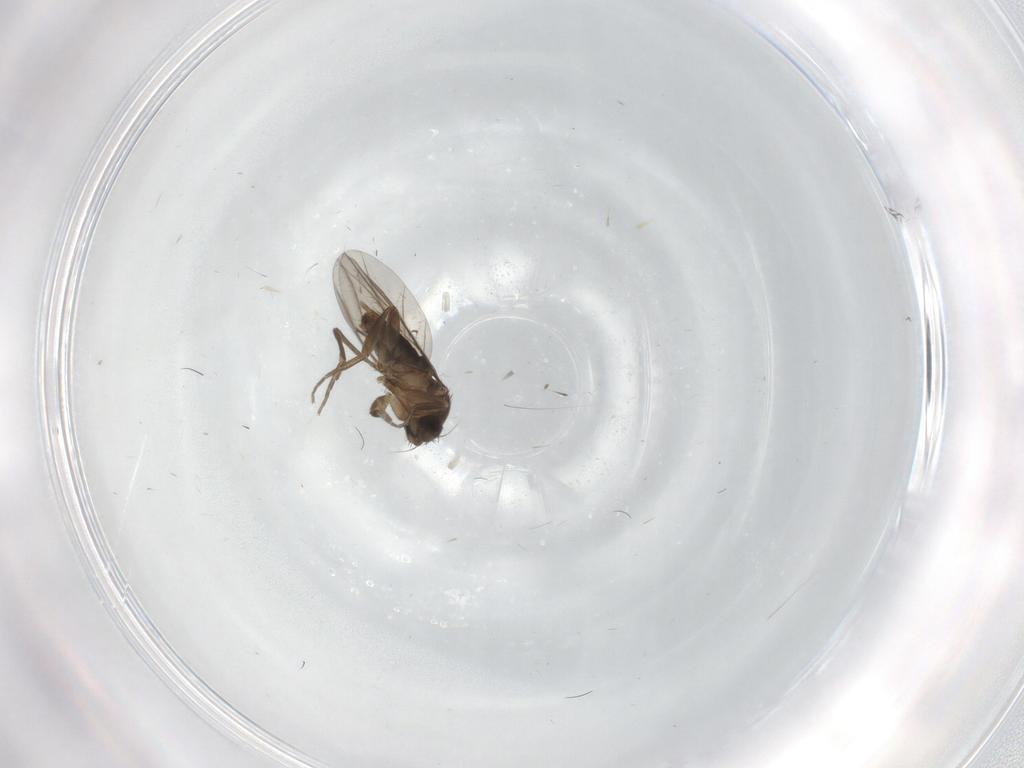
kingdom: Animalia
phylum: Arthropoda
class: Insecta
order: Diptera
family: Phoridae
